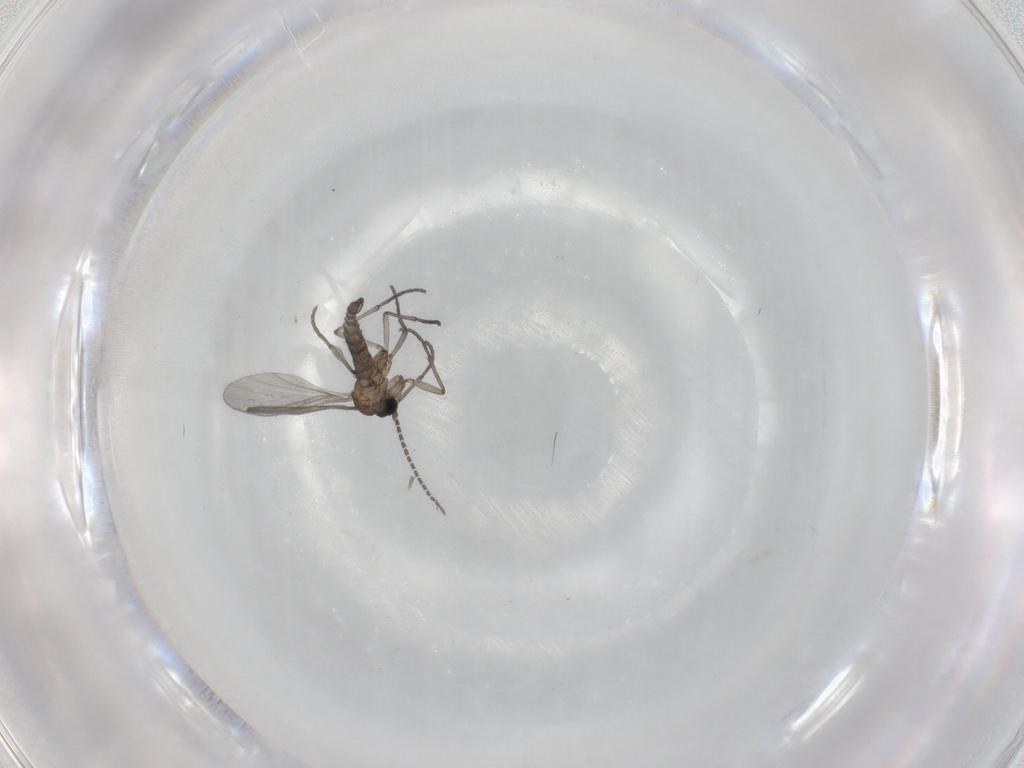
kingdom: Animalia
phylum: Arthropoda
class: Insecta
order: Diptera
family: Sciaridae
